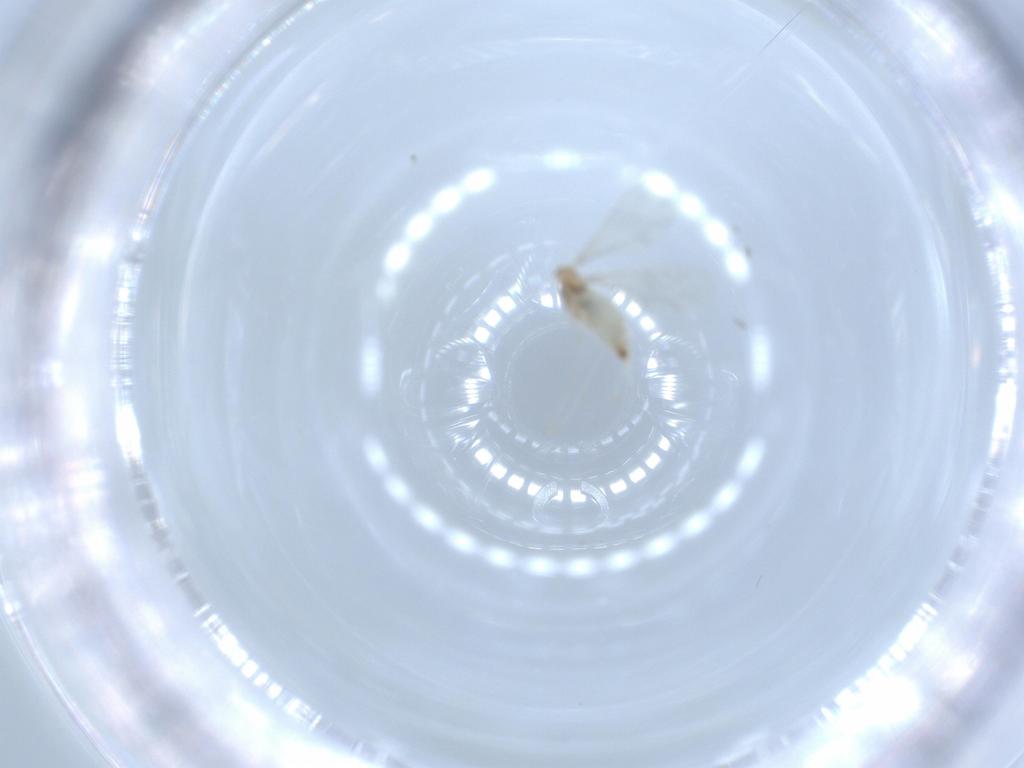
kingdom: Animalia
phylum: Arthropoda
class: Insecta
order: Diptera
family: Cecidomyiidae
